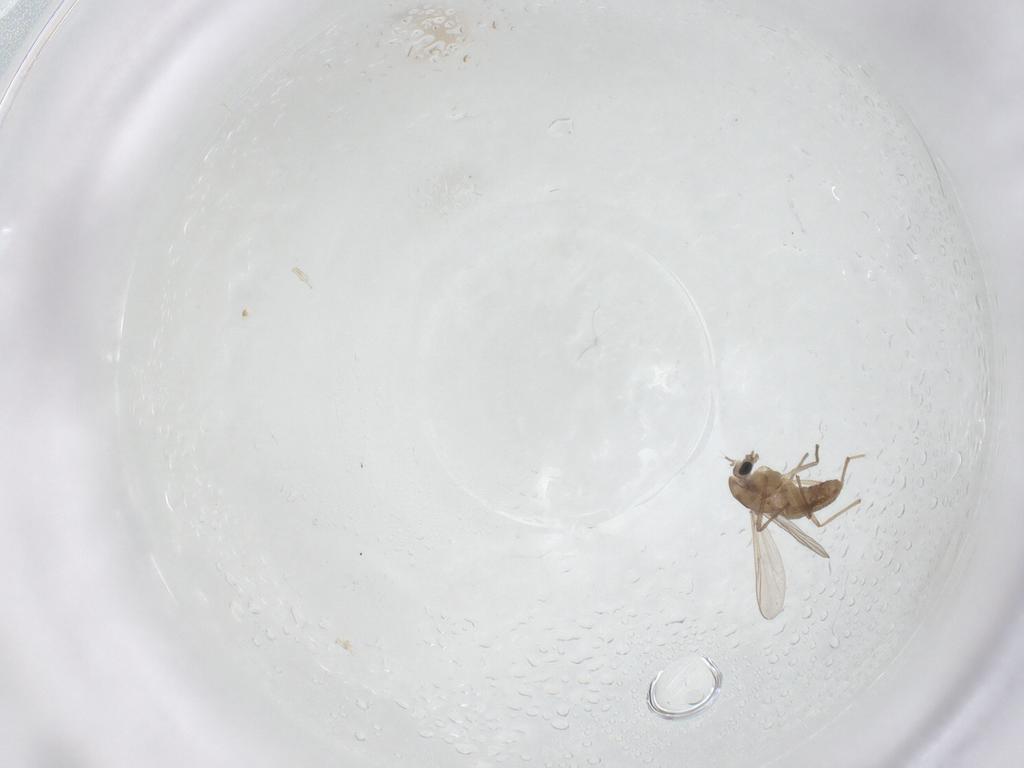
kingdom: Animalia
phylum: Arthropoda
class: Insecta
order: Diptera
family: Chironomidae
